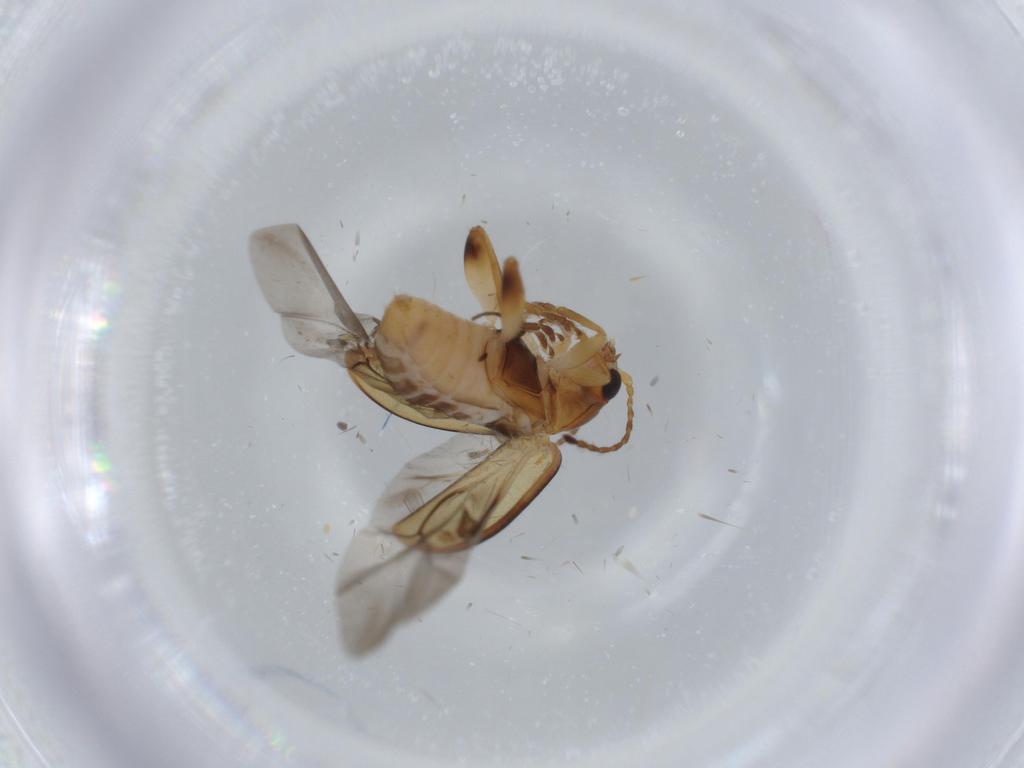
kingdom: Animalia
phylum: Arthropoda
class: Insecta
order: Coleoptera
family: Chrysomelidae
